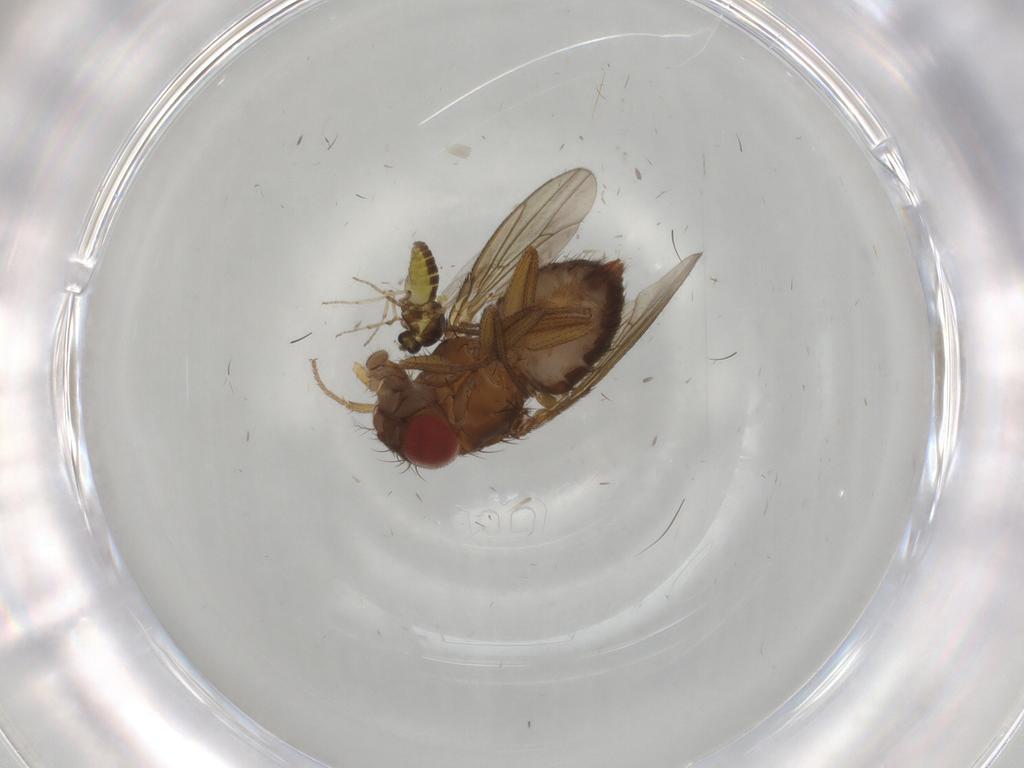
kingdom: Animalia
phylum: Arthropoda
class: Insecta
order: Diptera
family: Drosophilidae
